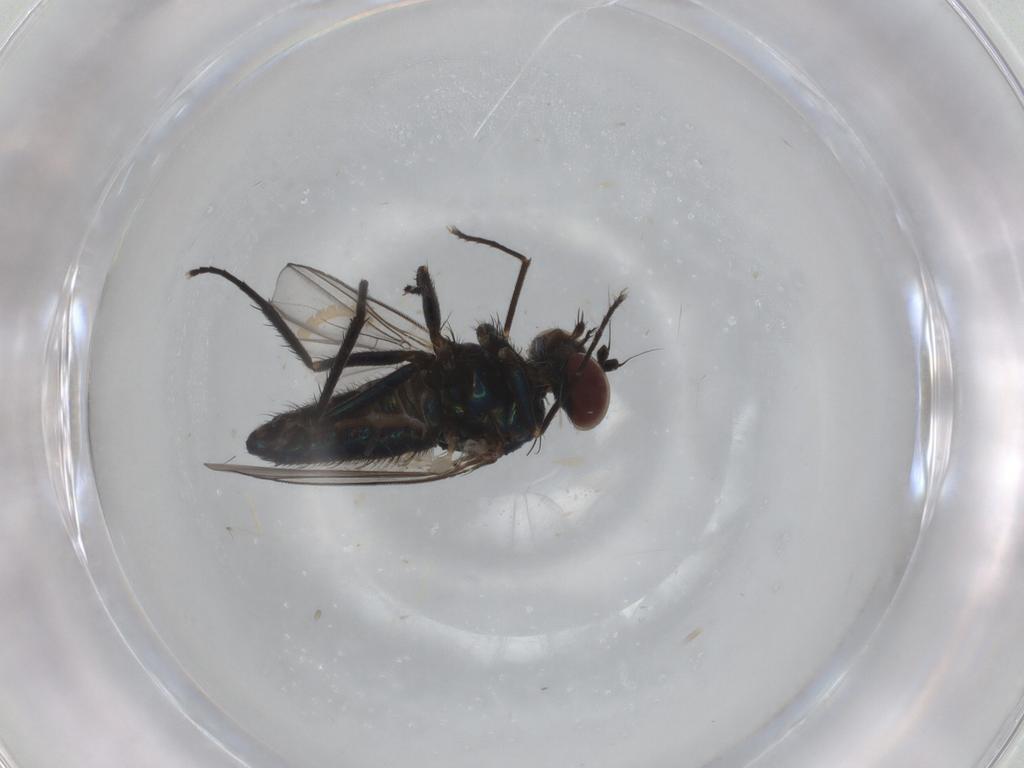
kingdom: Animalia
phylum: Arthropoda
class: Insecta
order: Diptera
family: Dolichopodidae
